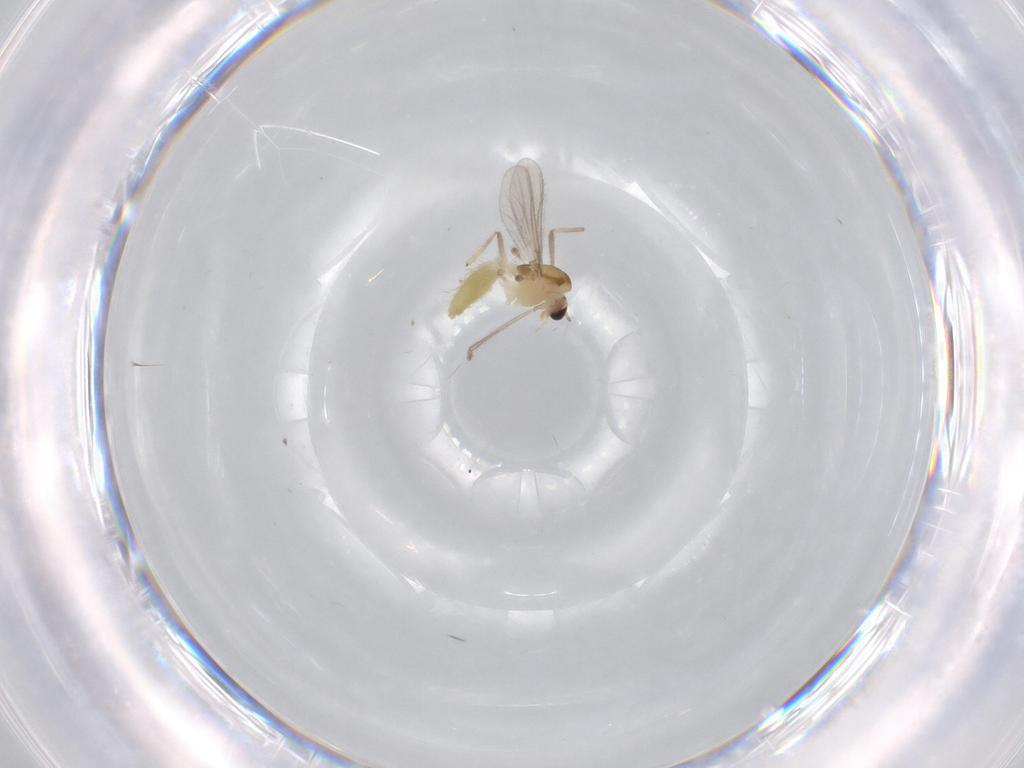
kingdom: Animalia
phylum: Arthropoda
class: Insecta
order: Diptera
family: Chironomidae
